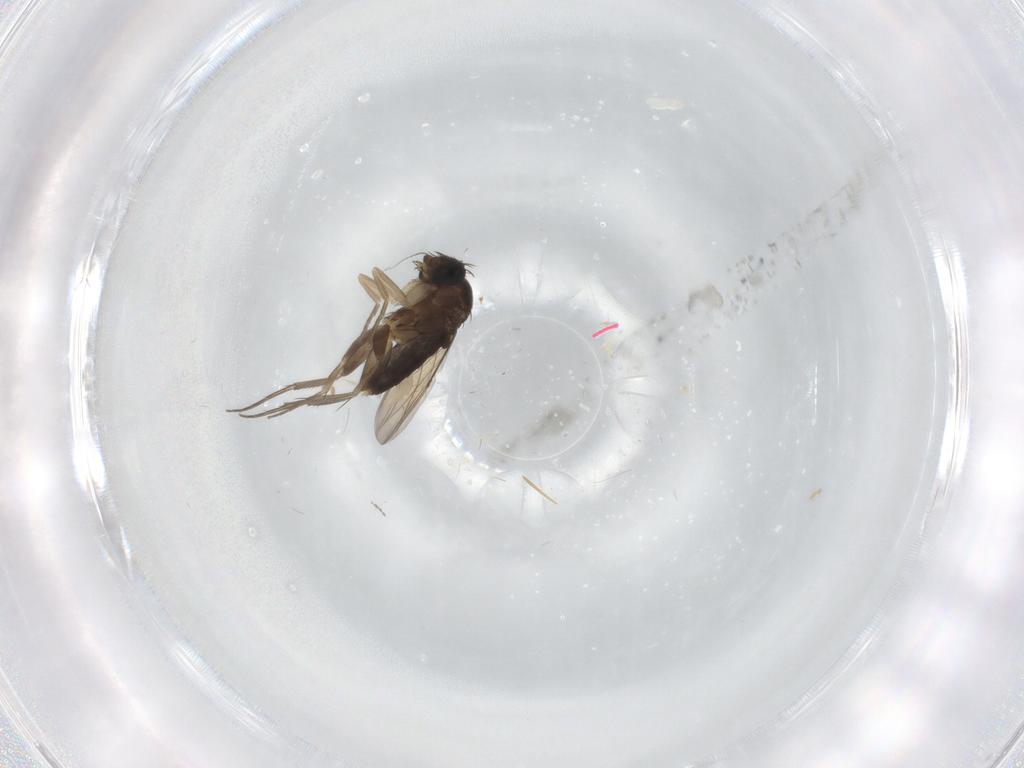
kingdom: Animalia
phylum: Arthropoda
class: Insecta
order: Diptera
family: Phoridae
